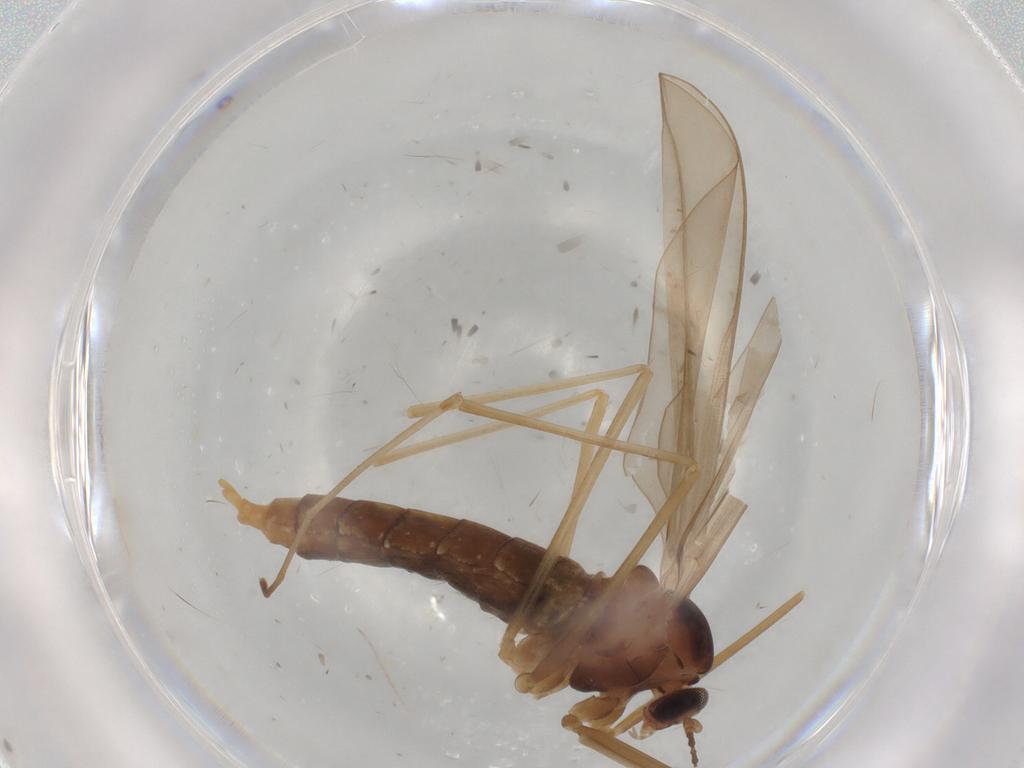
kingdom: Animalia
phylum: Arthropoda
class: Insecta
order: Diptera
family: Cecidomyiidae
